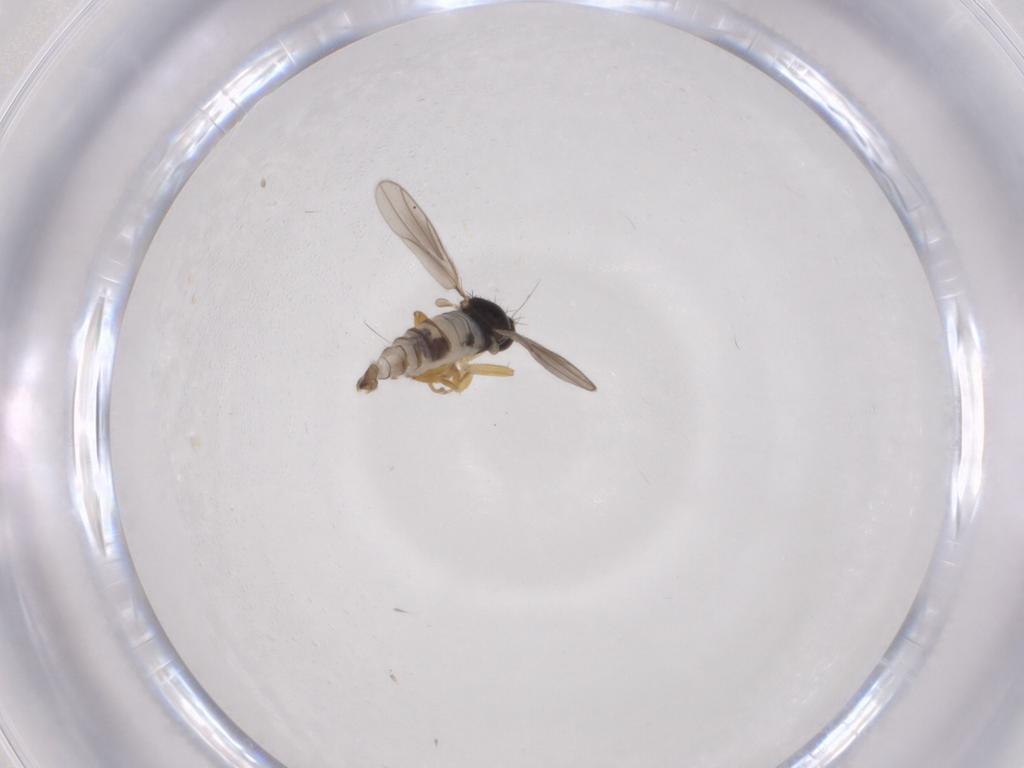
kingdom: Animalia
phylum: Arthropoda
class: Insecta
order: Diptera
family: Hybotidae
